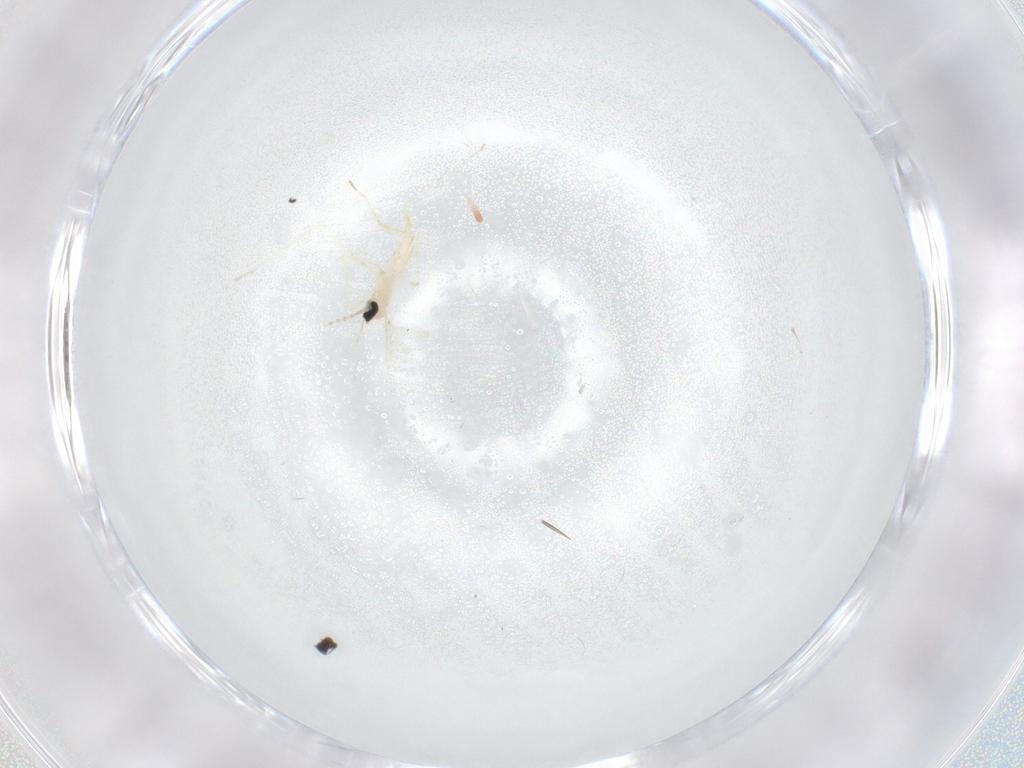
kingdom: Animalia
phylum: Arthropoda
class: Insecta
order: Diptera
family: Cecidomyiidae
